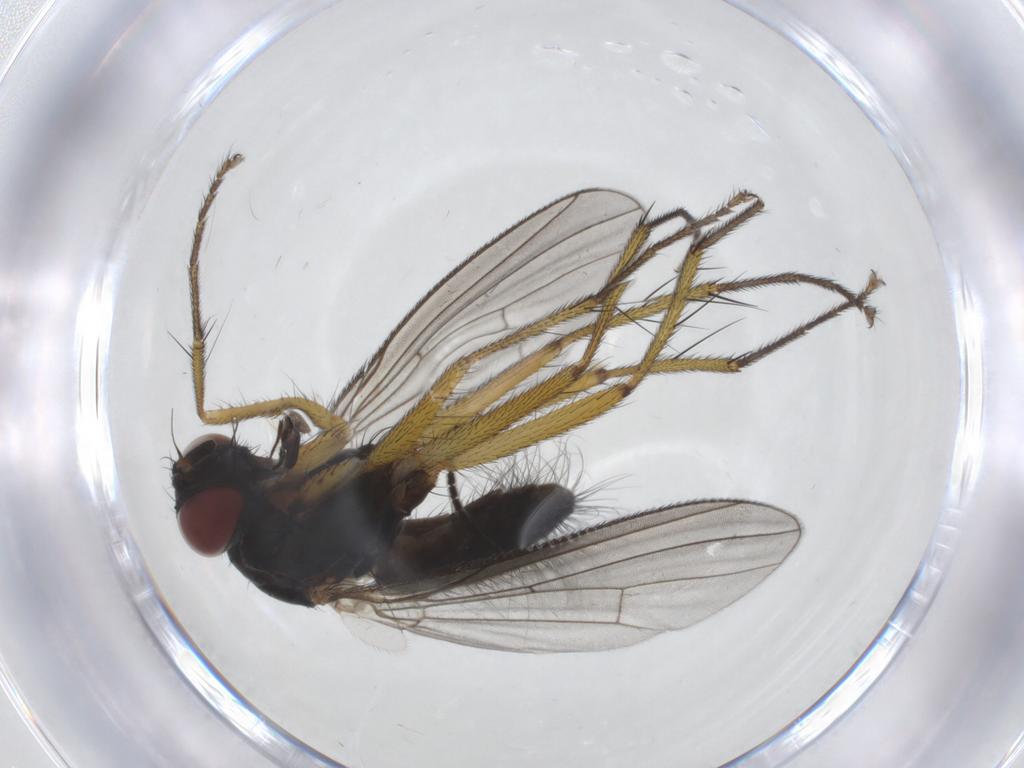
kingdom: Animalia
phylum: Arthropoda
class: Insecta
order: Diptera
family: Muscidae
